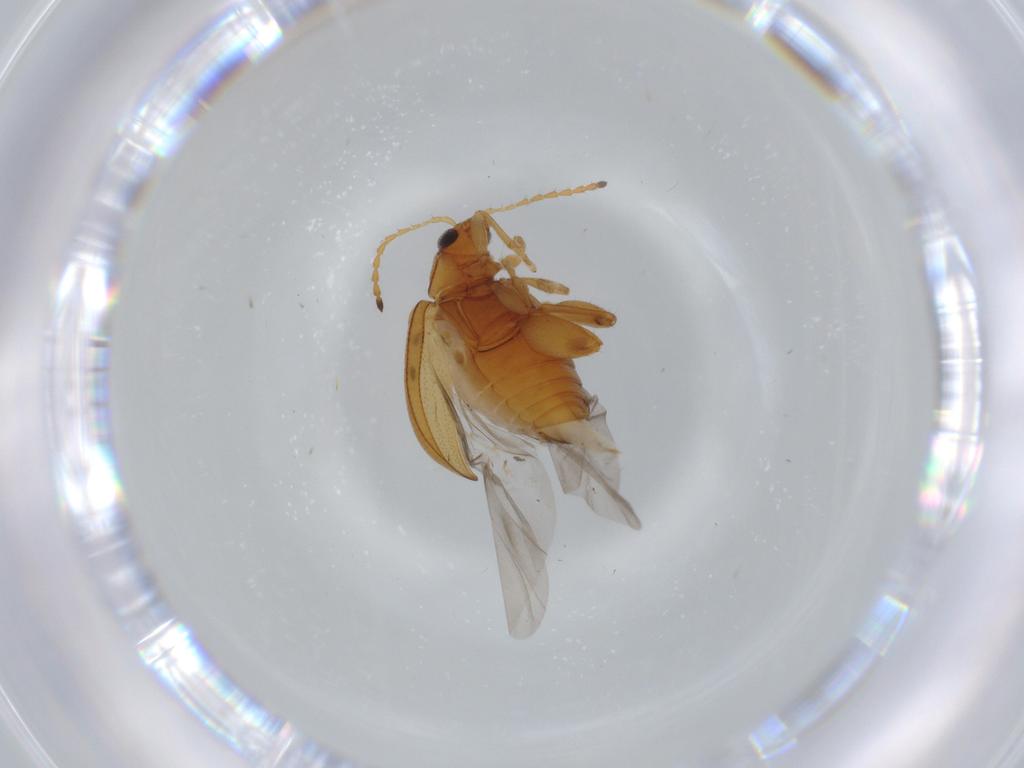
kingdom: Animalia
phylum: Arthropoda
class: Insecta
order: Coleoptera
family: Chrysomelidae
